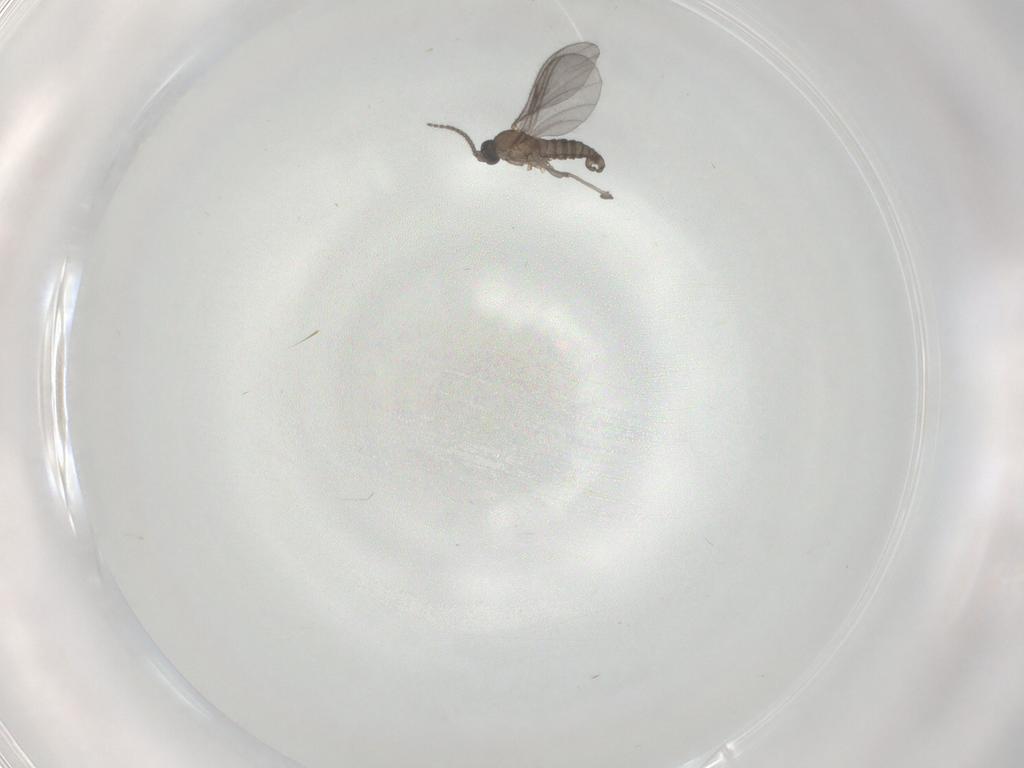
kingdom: Animalia
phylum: Arthropoda
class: Insecta
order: Diptera
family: Sciaridae
